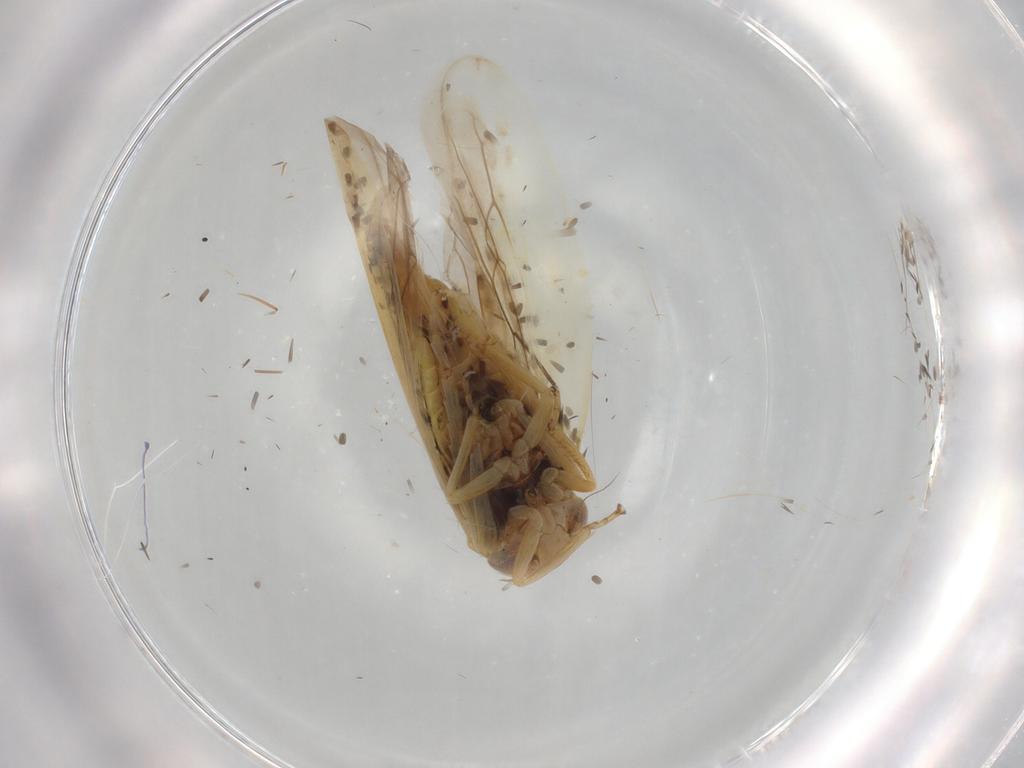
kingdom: Animalia
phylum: Arthropoda
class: Insecta
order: Hemiptera
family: Cicadellidae
